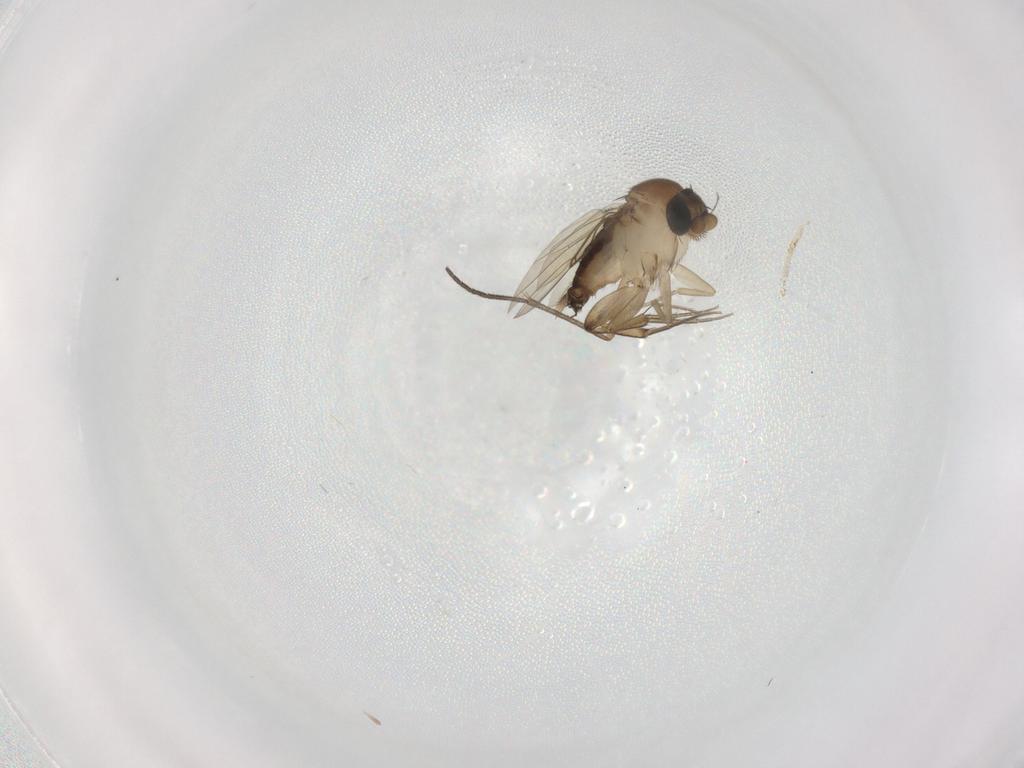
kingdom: Animalia
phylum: Arthropoda
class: Insecta
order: Diptera
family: Phoridae
